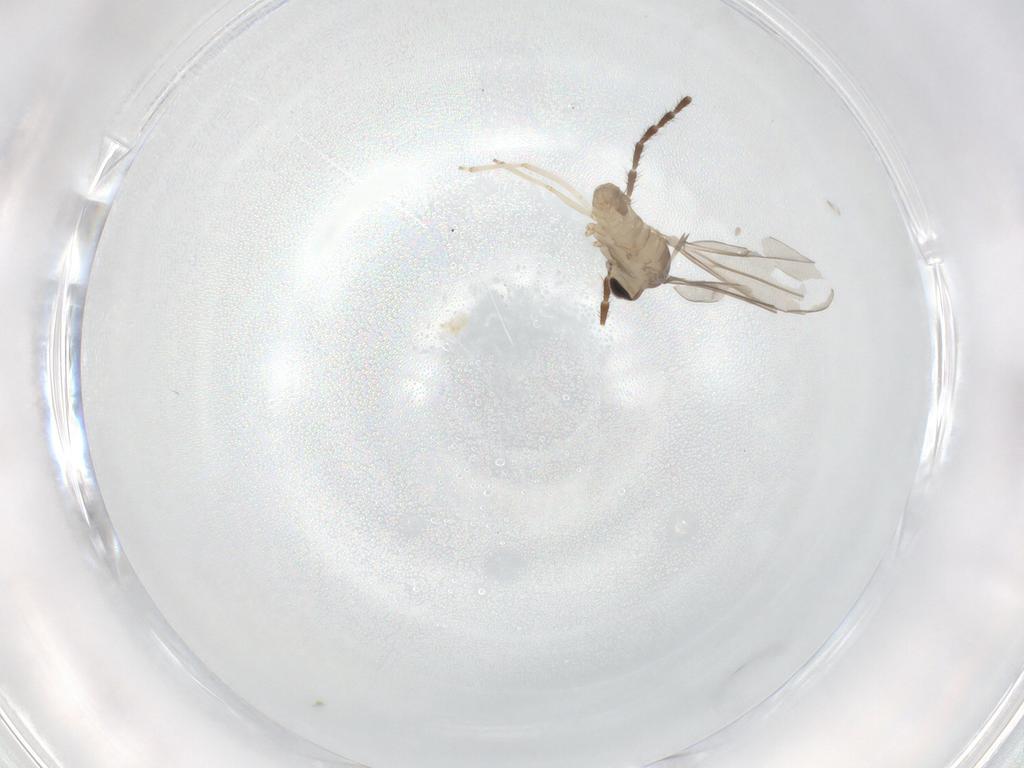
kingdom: Animalia
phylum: Arthropoda
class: Insecta
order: Diptera
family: Cecidomyiidae
